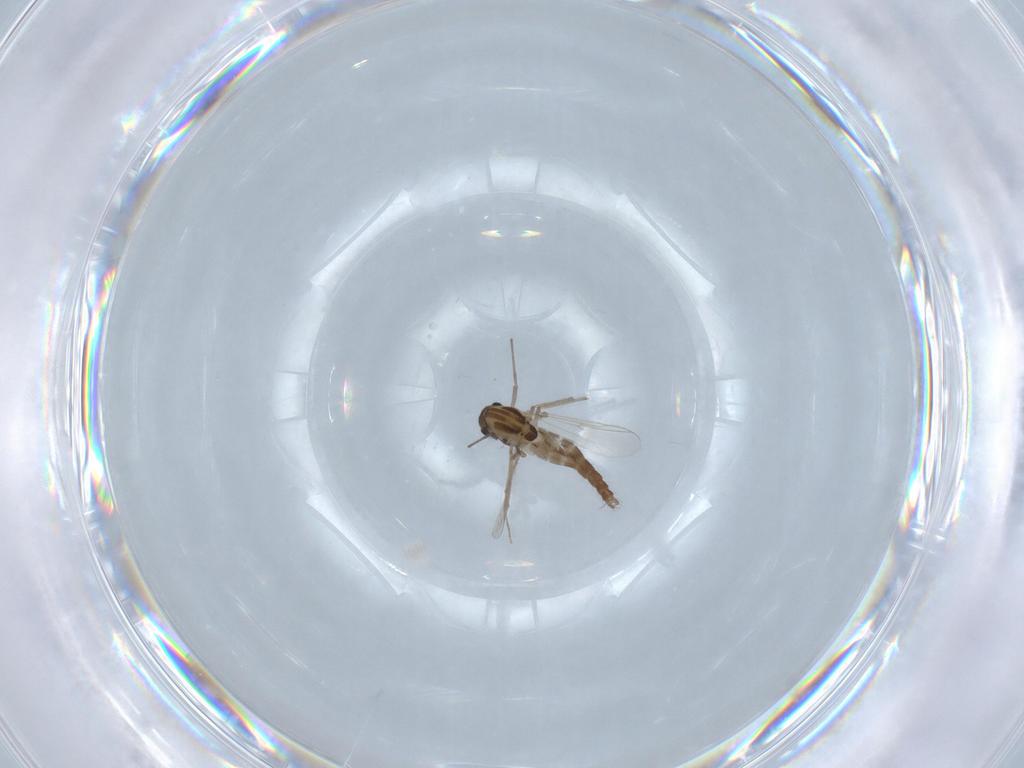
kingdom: Animalia
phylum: Arthropoda
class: Insecta
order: Diptera
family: Chironomidae
